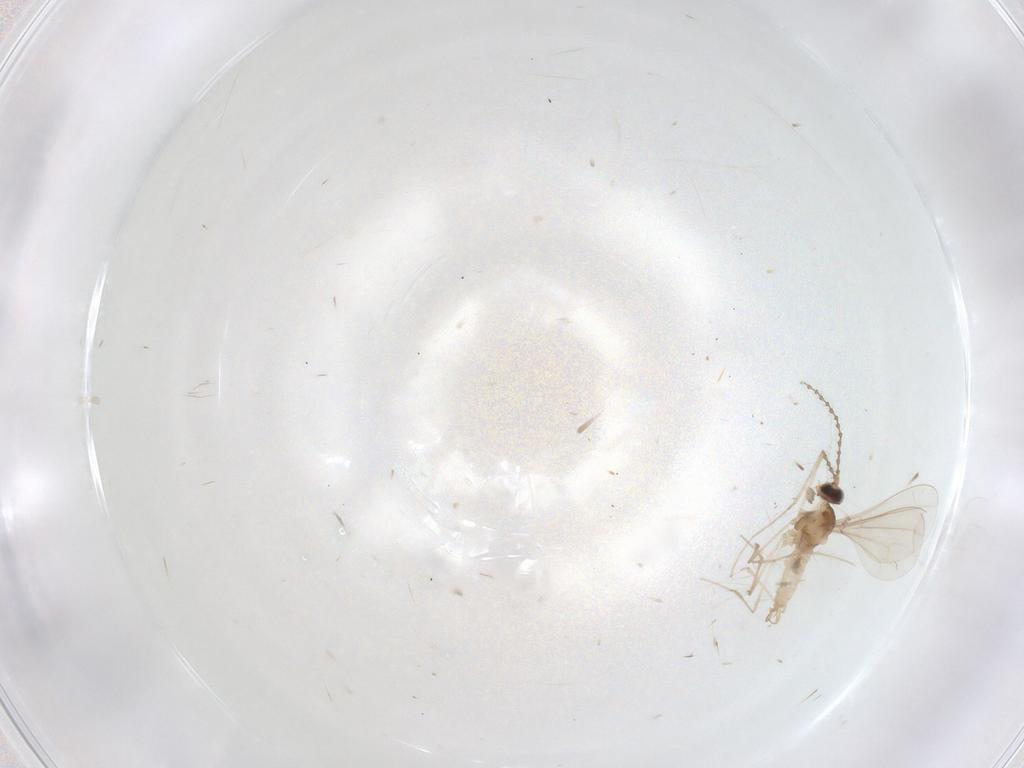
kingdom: Animalia
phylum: Arthropoda
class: Insecta
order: Diptera
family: Cecidomyiidae
